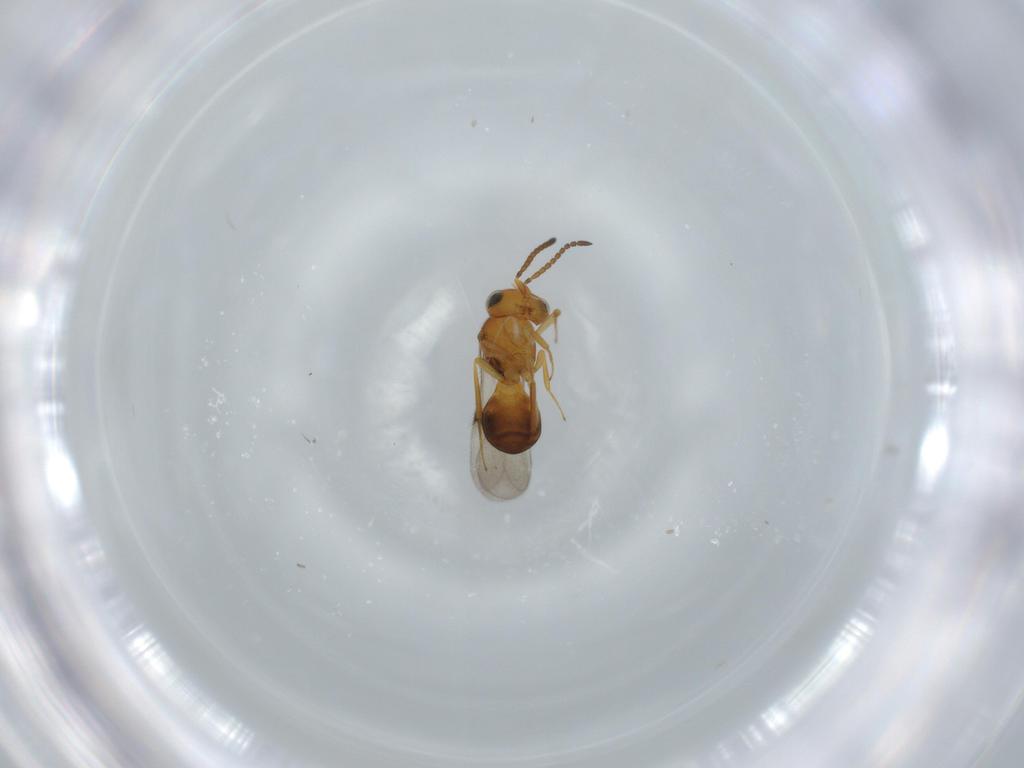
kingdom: Animalia
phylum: Arthropoda
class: Insecta
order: Hymenoptera
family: Scelionidae
